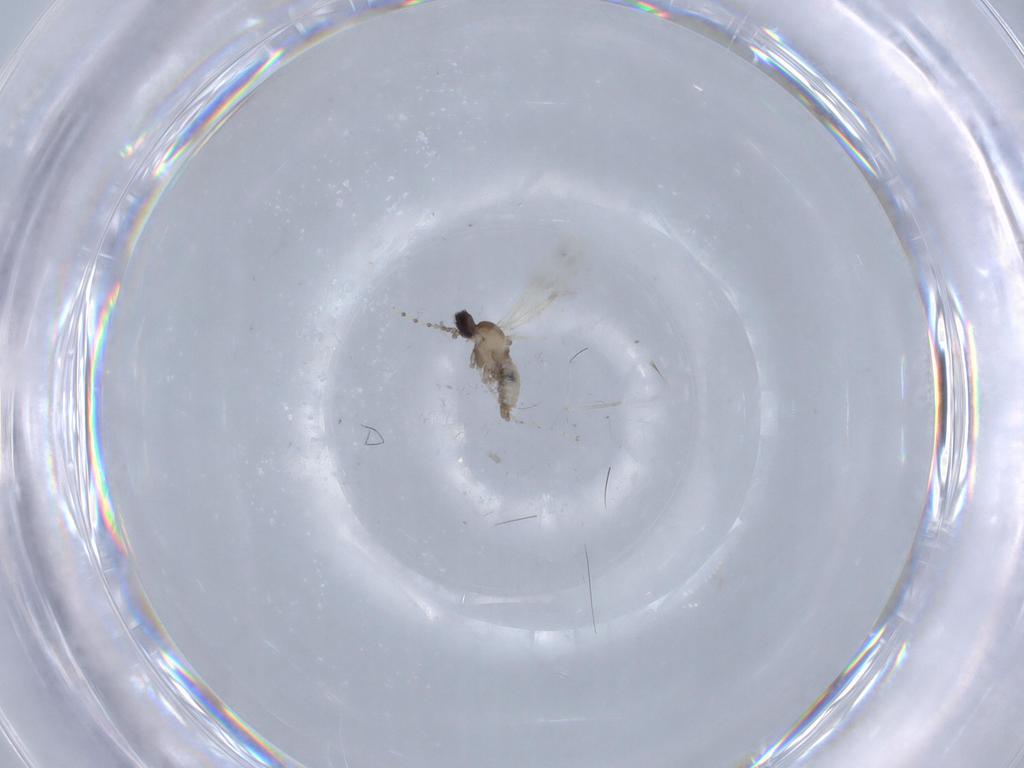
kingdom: Animalia
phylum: Arthropoda
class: Insecta
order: Diptera
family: Cecidomyiidae
